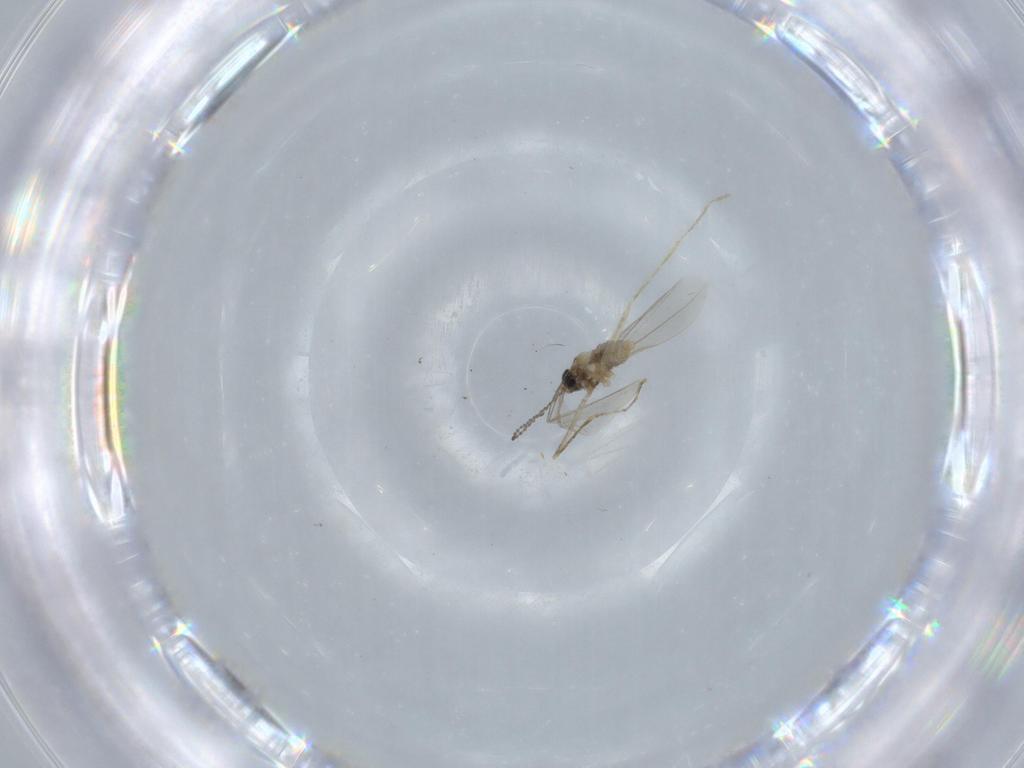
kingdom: Animalia
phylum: Arthropoda
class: Insecta
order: Diptera
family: Cecidomyiidae
